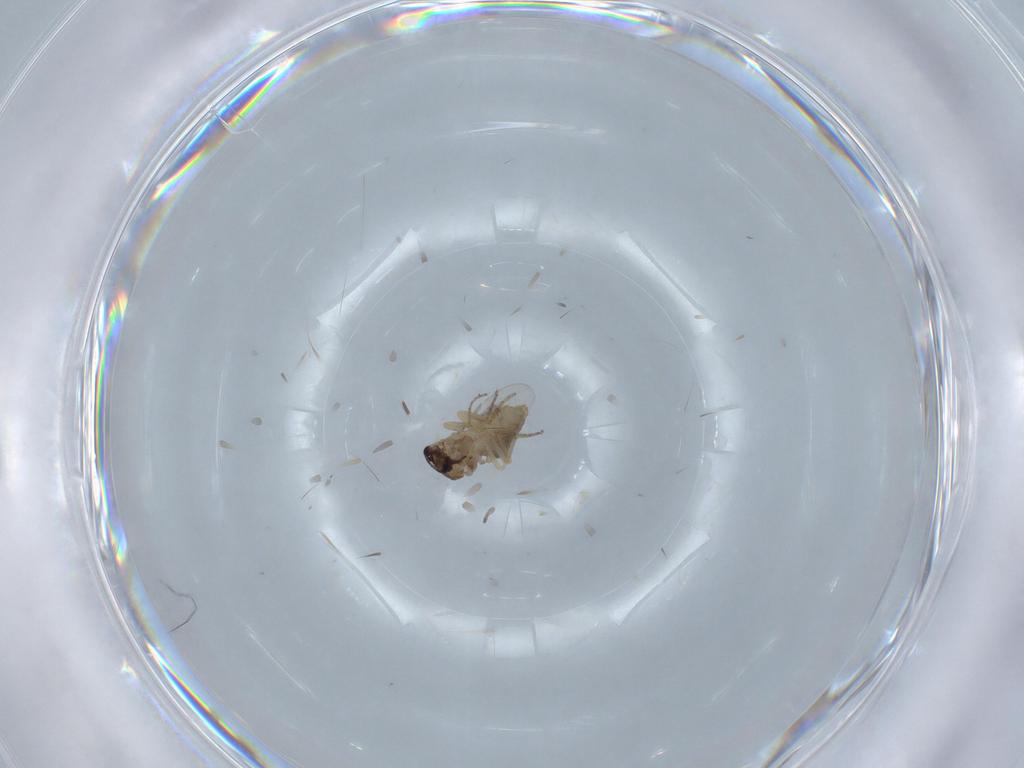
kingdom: Animalia
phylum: Arthropoda
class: Insecta
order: Diptera
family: Ceratopogonidae
